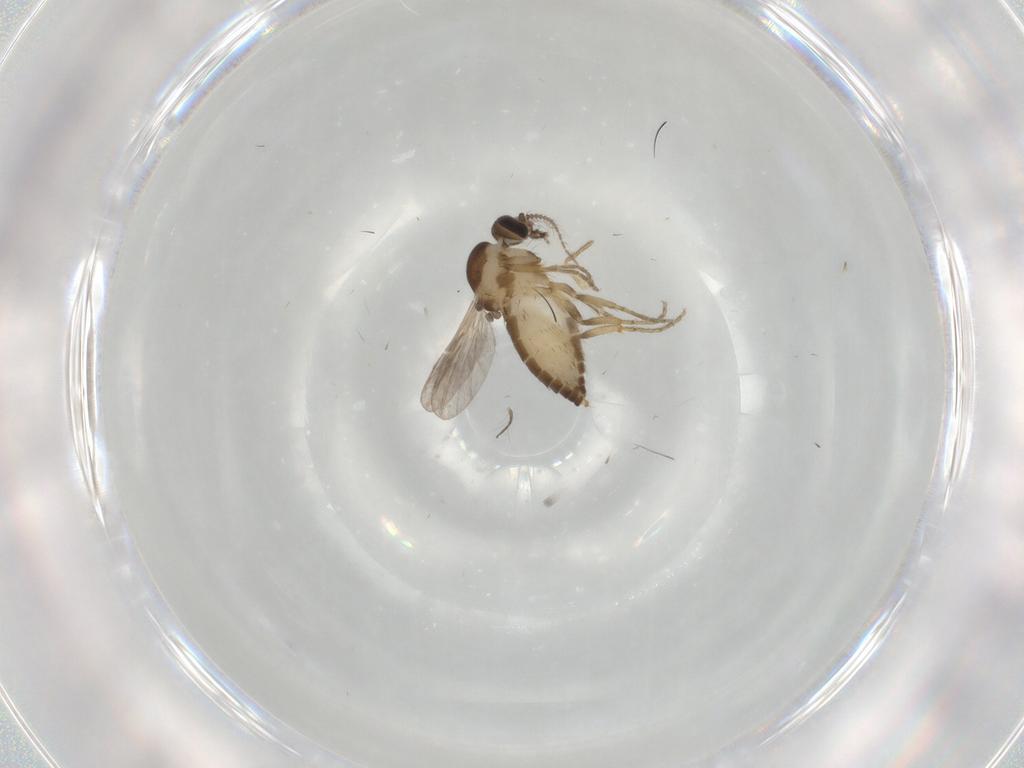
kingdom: Animalia
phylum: Arthropoda
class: Insecta
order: Diptera
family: Ceratopogonidae
